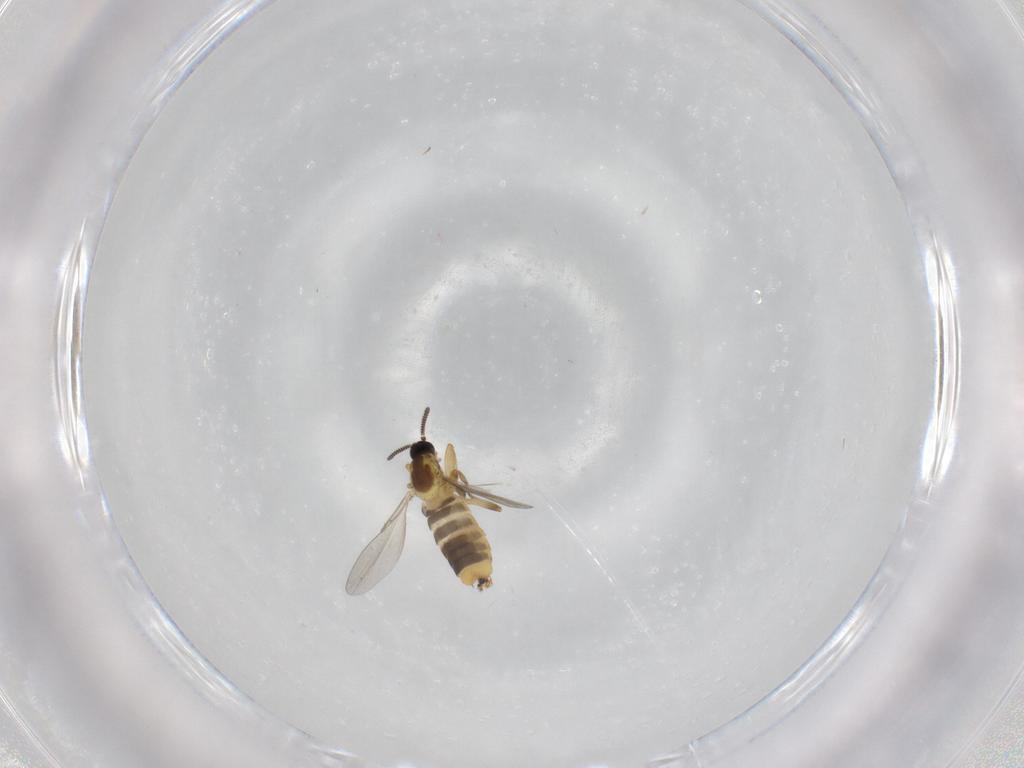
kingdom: Animalia
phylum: Arthropoda
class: Insecta
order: Diptera
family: Scatopsidae
